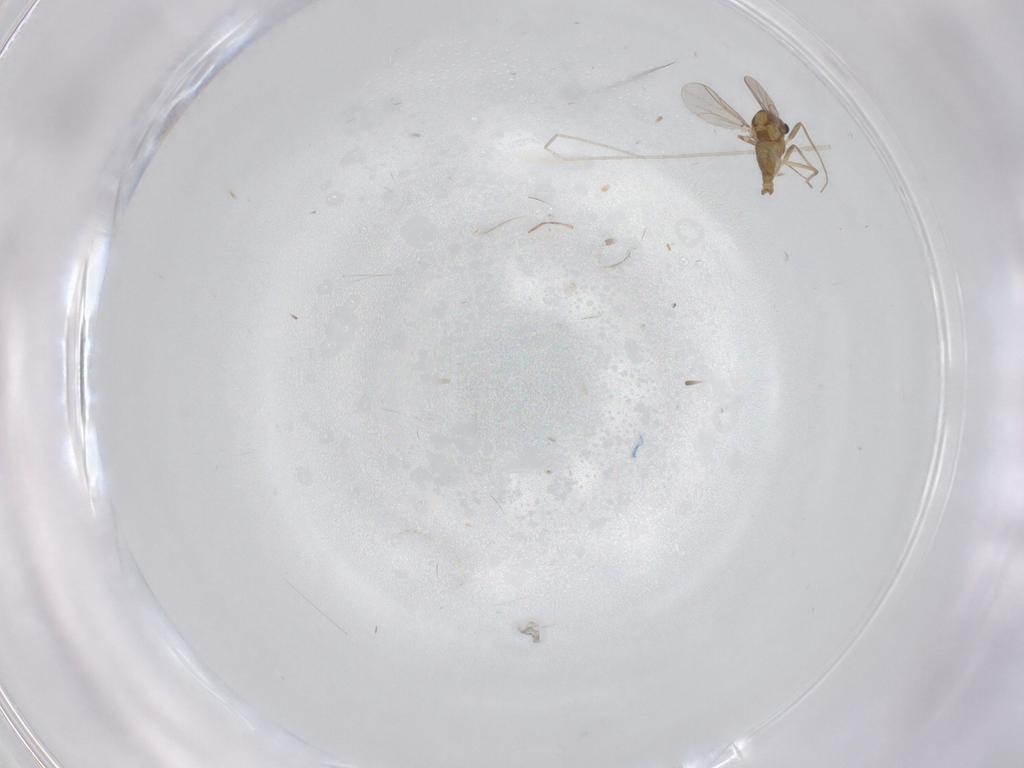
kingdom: Animalia
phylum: Arthropoda
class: Insecta
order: Diptera
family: Chironomidae
